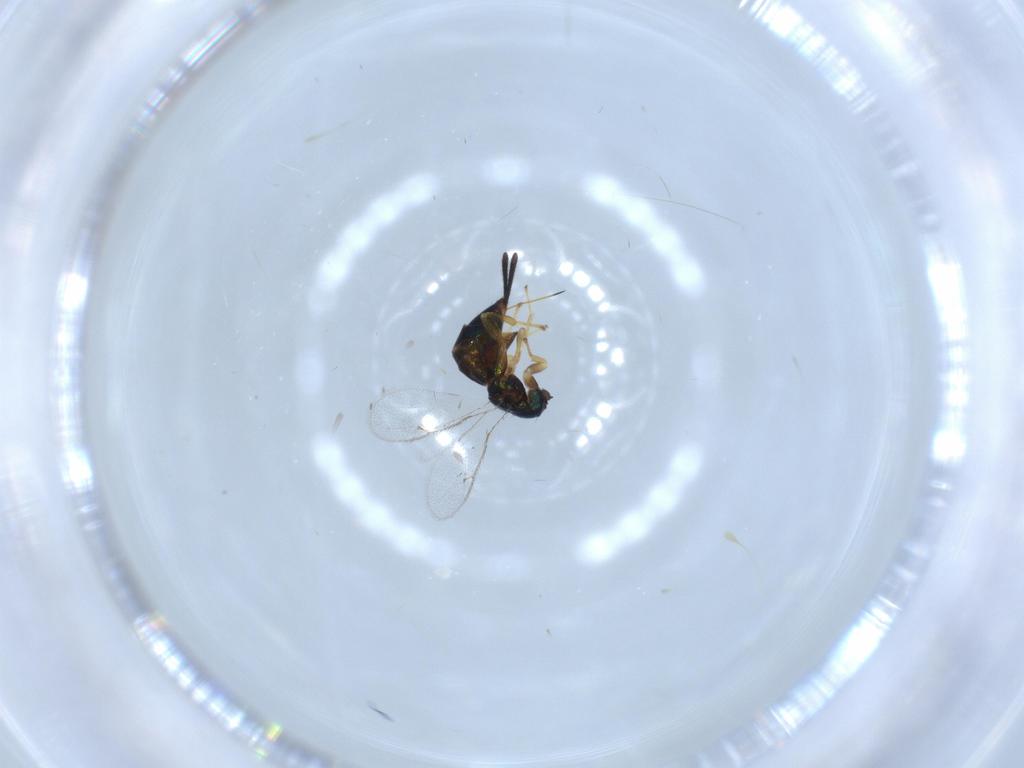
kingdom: Animalia
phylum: Arthropoda
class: Insecta
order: Hymenoptera
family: Torymidae
